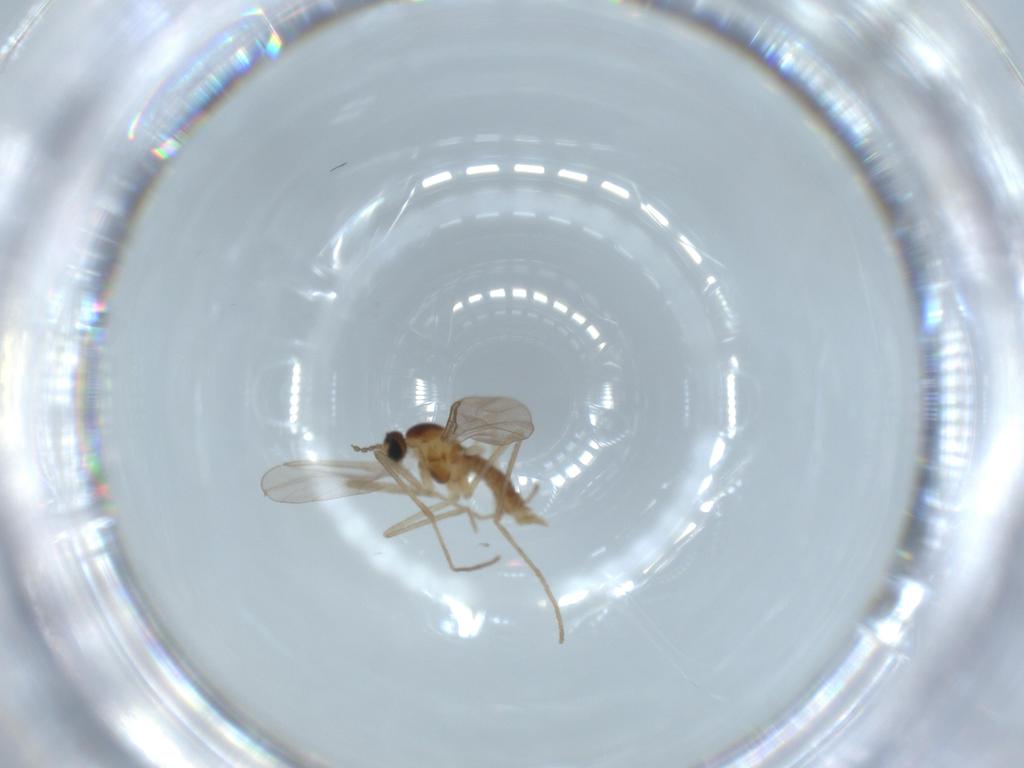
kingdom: Animalia
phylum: Arthropoda
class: Insecta
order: Diptera
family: Cecidomyiidae
